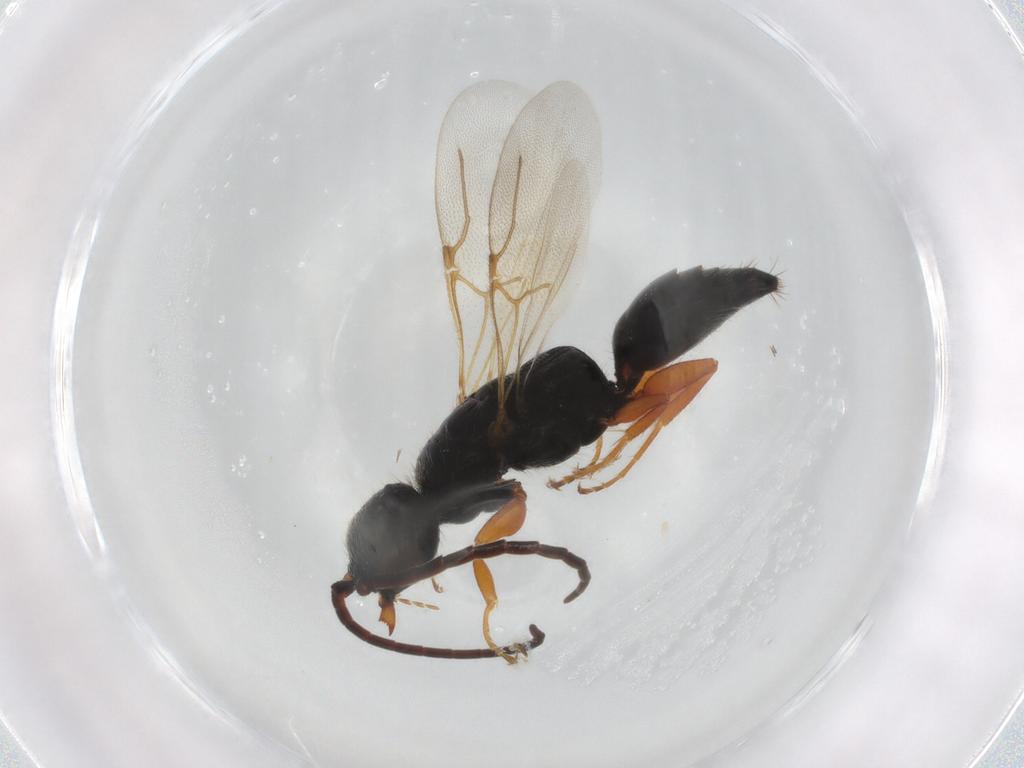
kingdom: Animalia
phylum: Arthropoda
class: Insecta
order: Hymenoptera
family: Bethylidae
